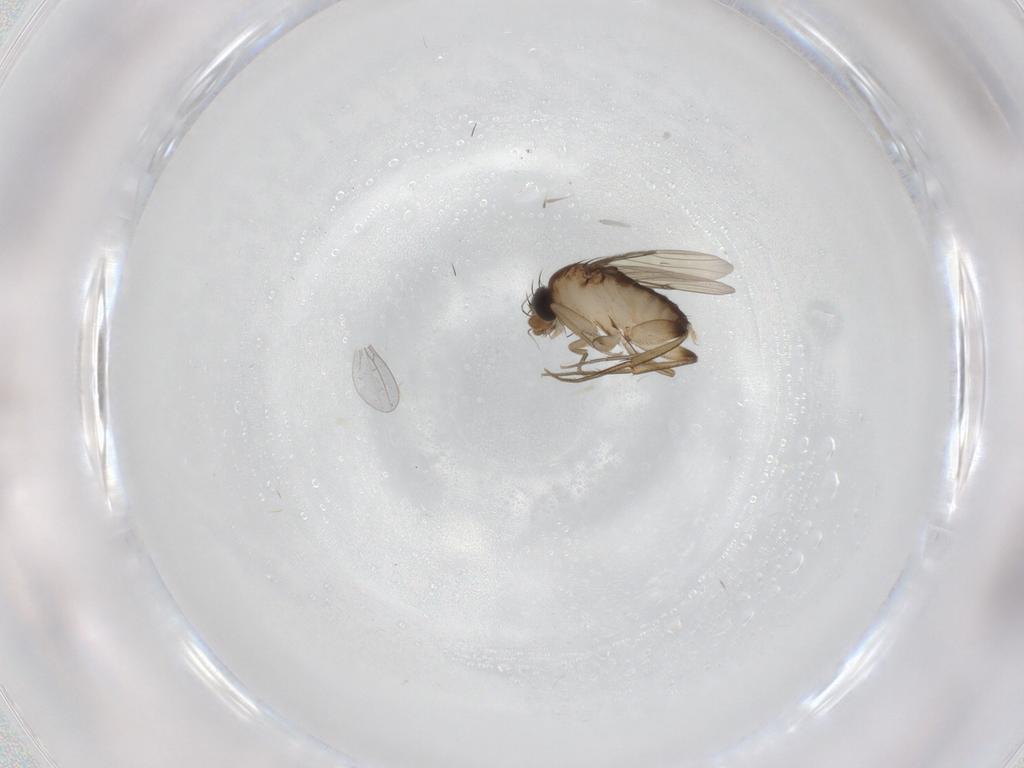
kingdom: Animalia
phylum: Arthropoda
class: Insecta
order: Diptera
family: Phoridae
